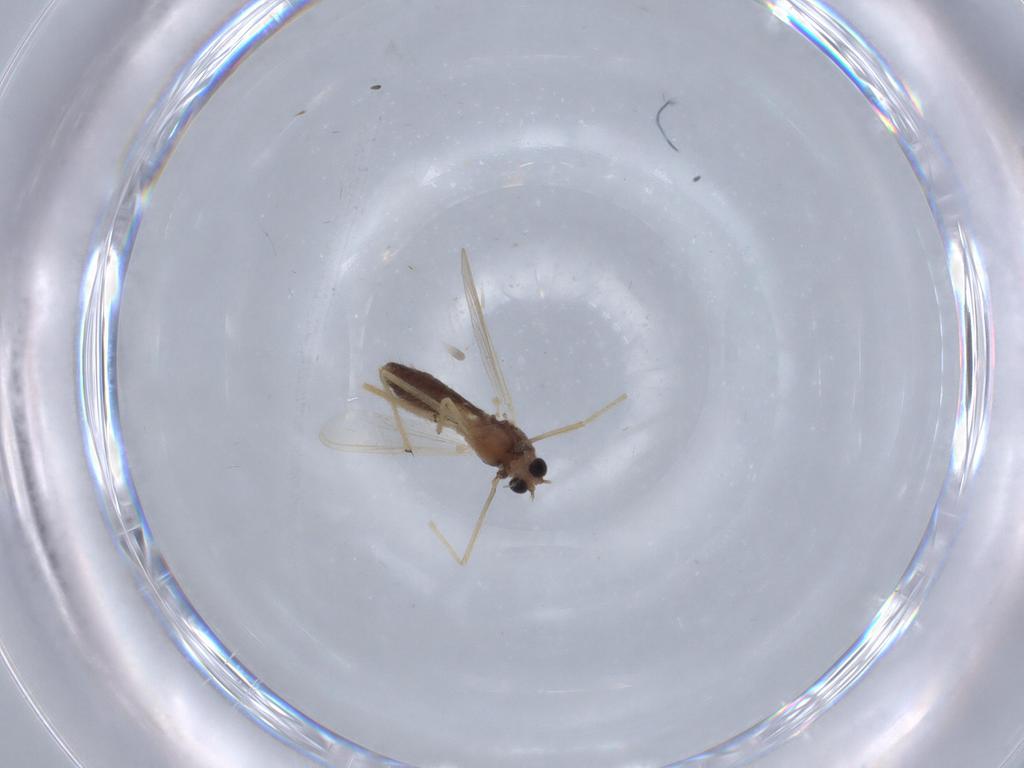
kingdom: Animalia
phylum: Arthropoda
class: Insecta
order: Diptera
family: Chironomidae
